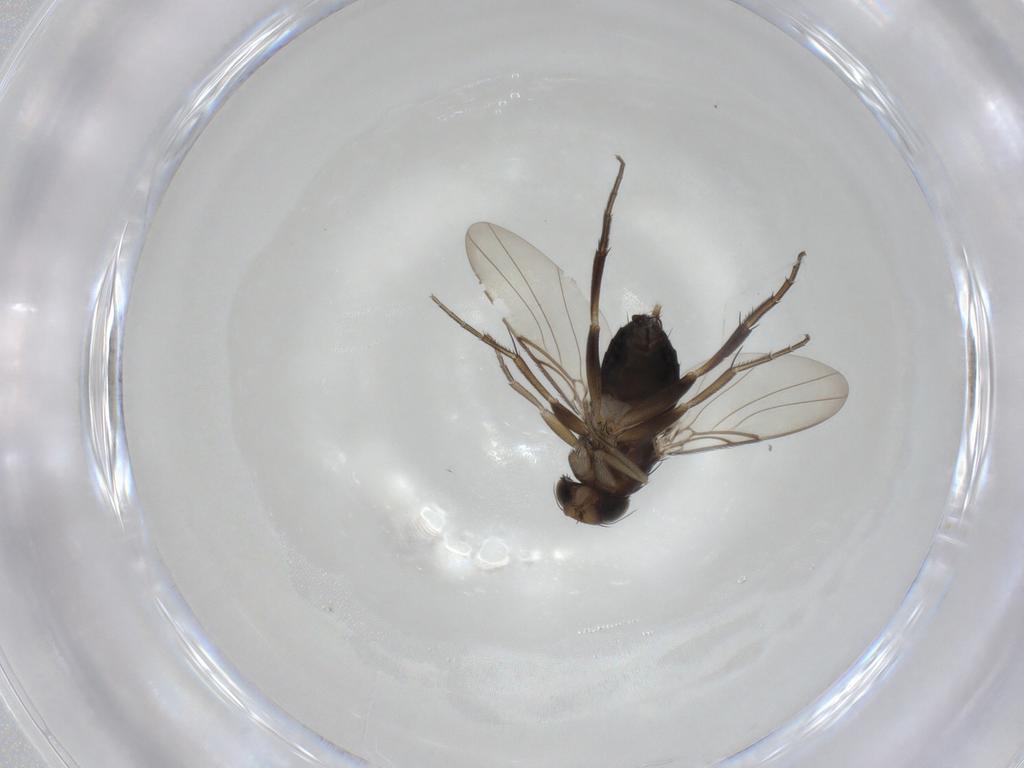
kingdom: Animalia
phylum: Arthropoda
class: Insecta
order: Diptera
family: Phoridae
